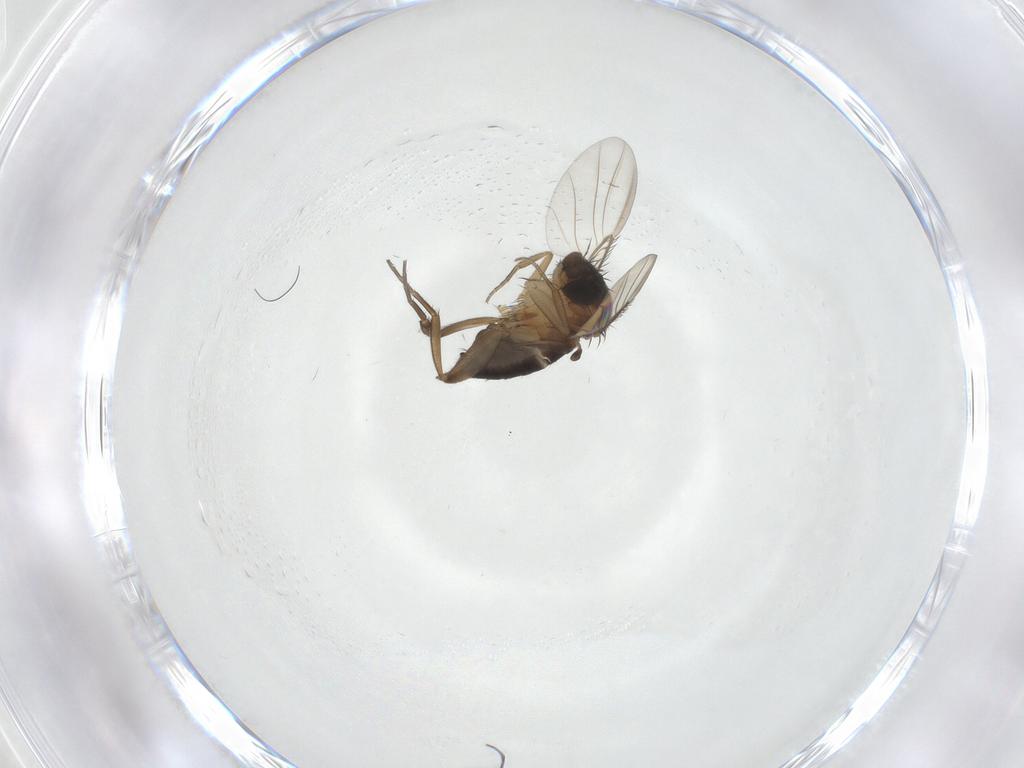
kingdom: Animalia
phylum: Arthropoda
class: Insecta
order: Diptera
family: Phoridae
